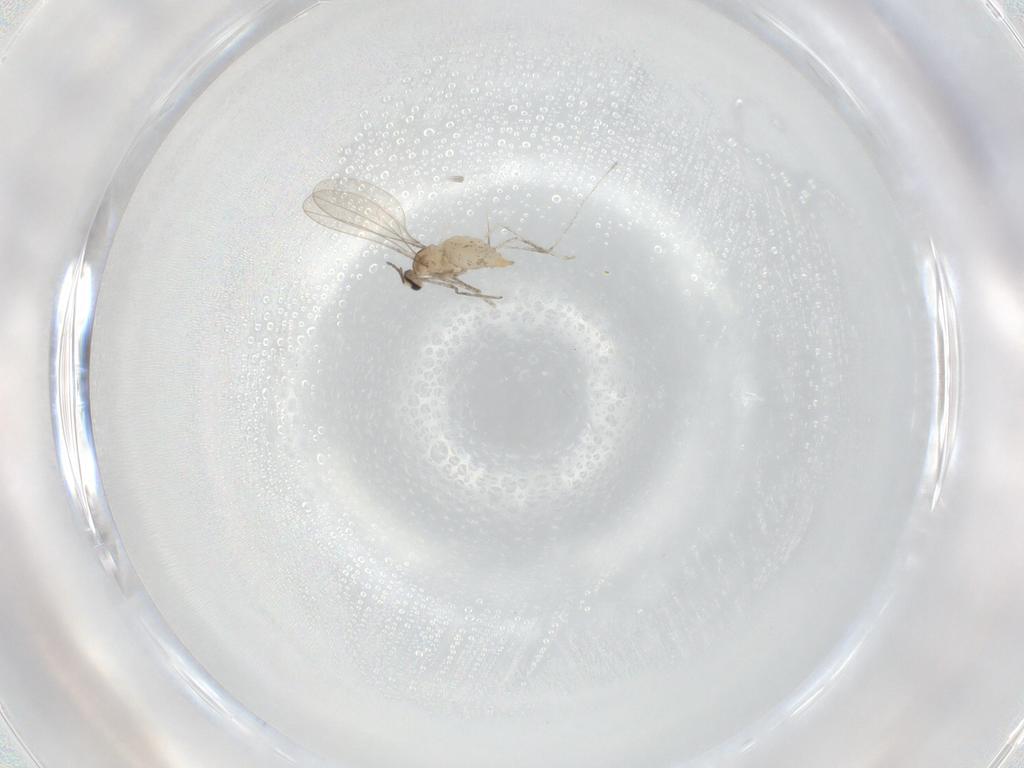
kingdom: Animalia
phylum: Arthropoda
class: Insecta
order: Diptera
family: Cecidomyiidae
